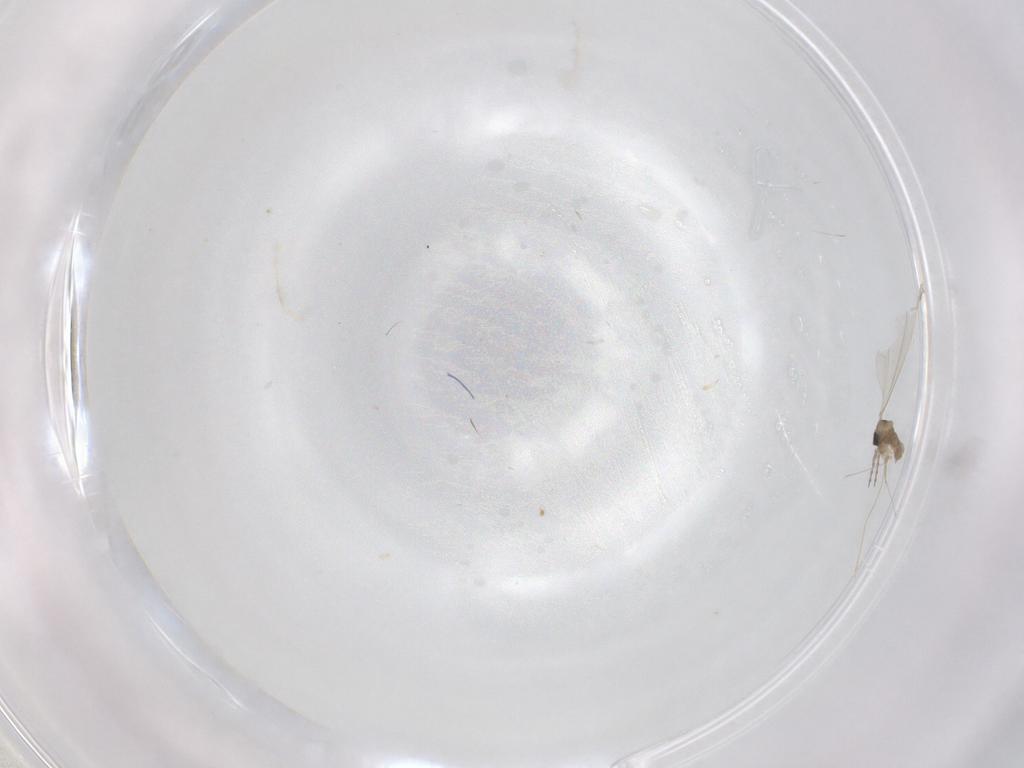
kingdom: Animalia
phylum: Arthropoda
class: Insecta
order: Diptera
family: Cecidomyiidae
